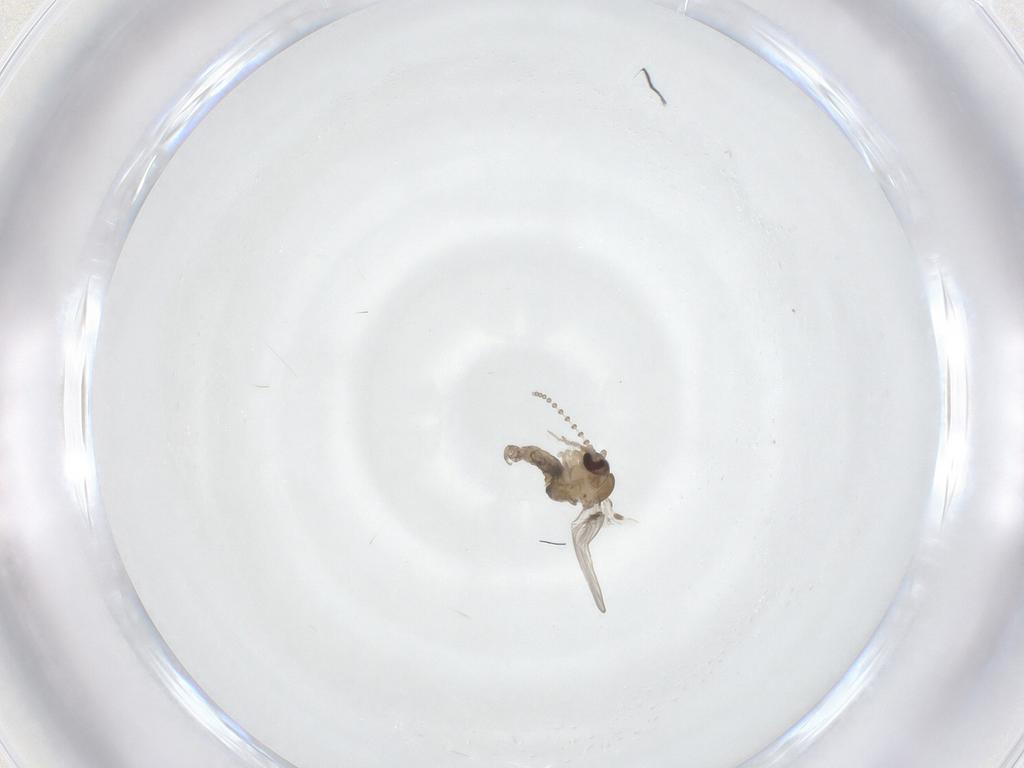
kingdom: Animalia
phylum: Arthropoda
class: Insecta
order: Diptera
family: Psychodidae
